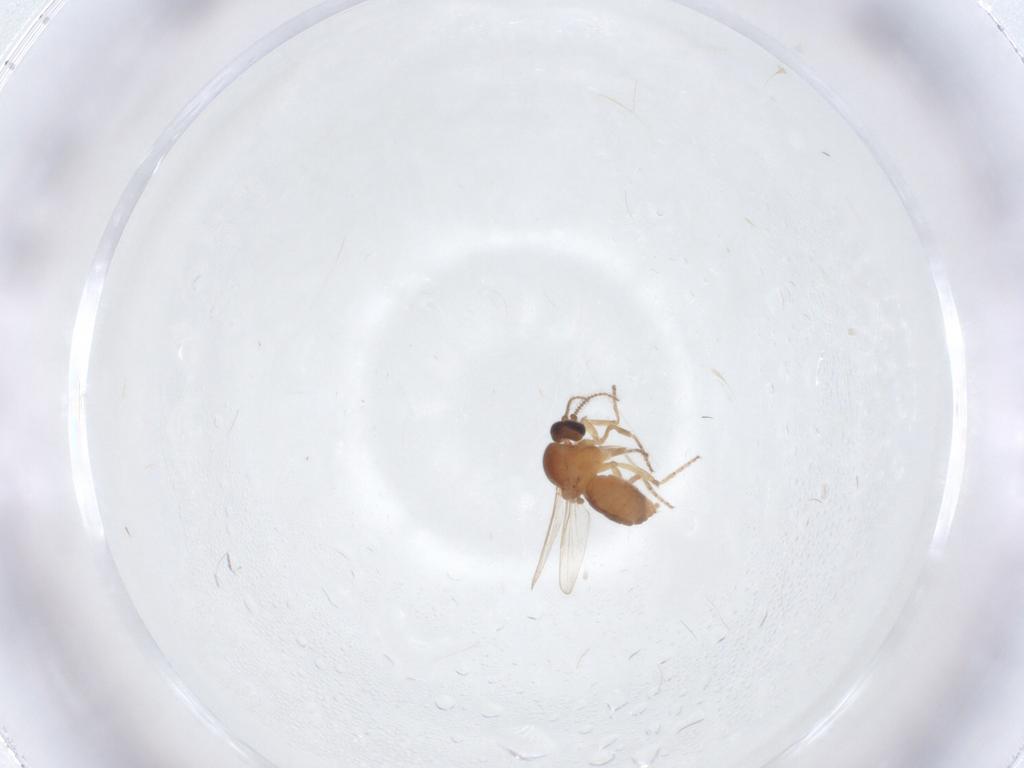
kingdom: Animalia
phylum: Arthropoda
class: Insecta
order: Diptera
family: Ceratopogonidae
